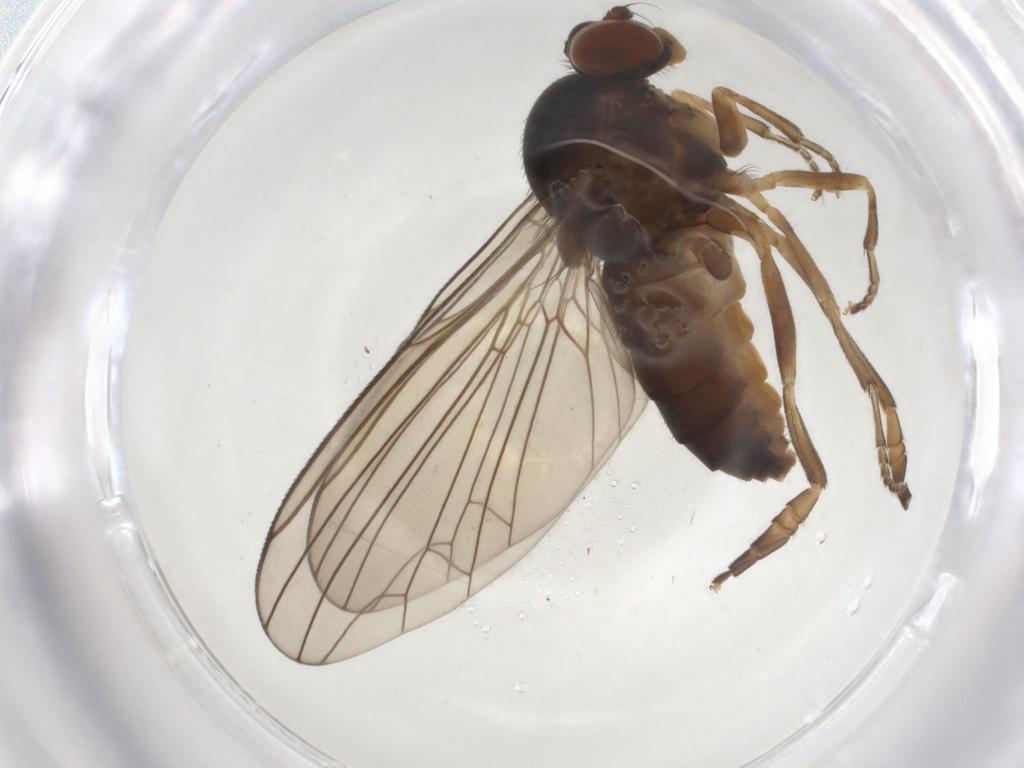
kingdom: Animalia
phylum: Arthropoda
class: Insecta
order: Diptera
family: Platypezidae
